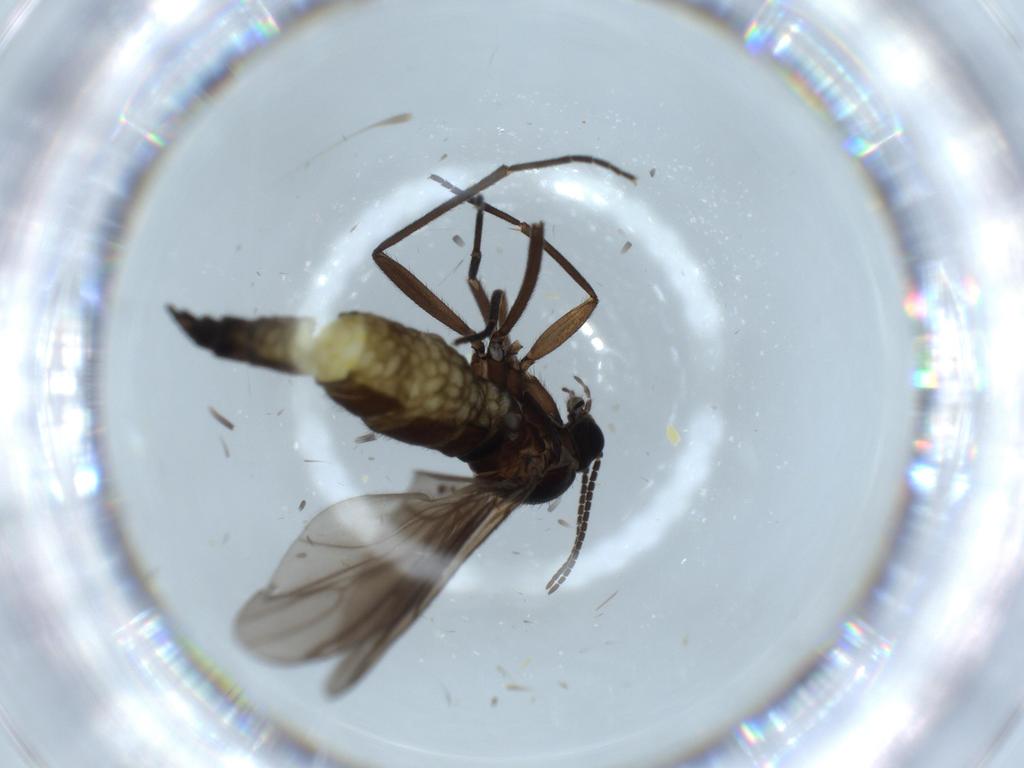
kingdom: Animalia
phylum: Arthropoda
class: Insecta
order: Diptera
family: Sciaridae
